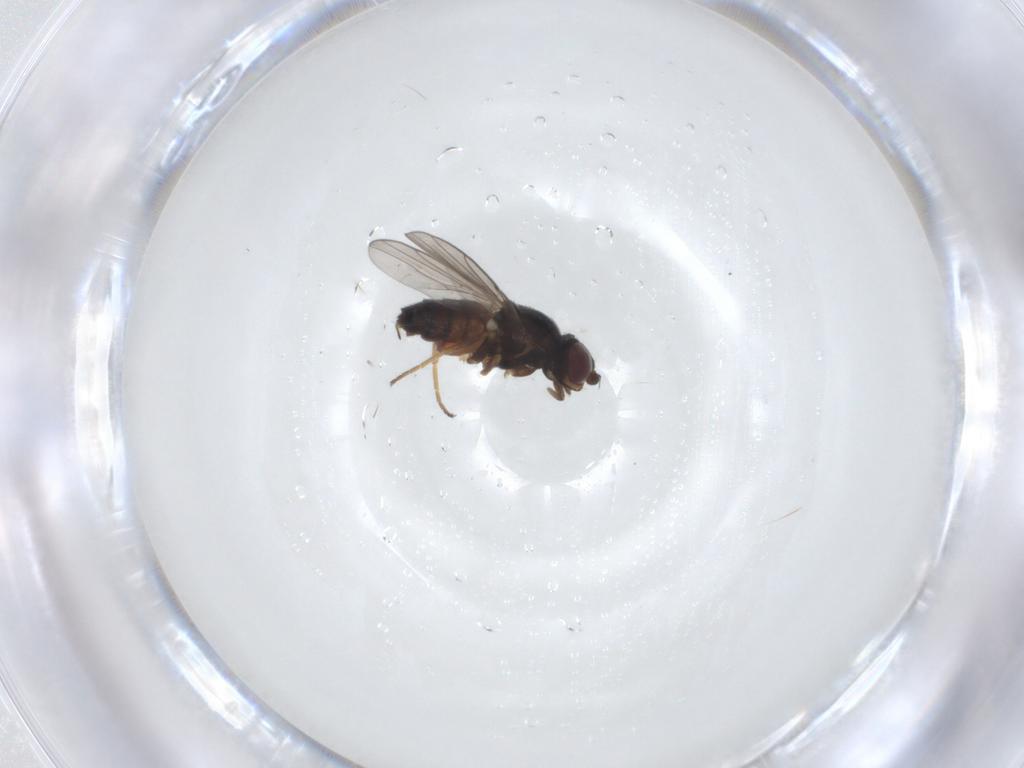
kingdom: Animalia
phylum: Arthropoda
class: Insecta
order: Diptera
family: Chloropidae
